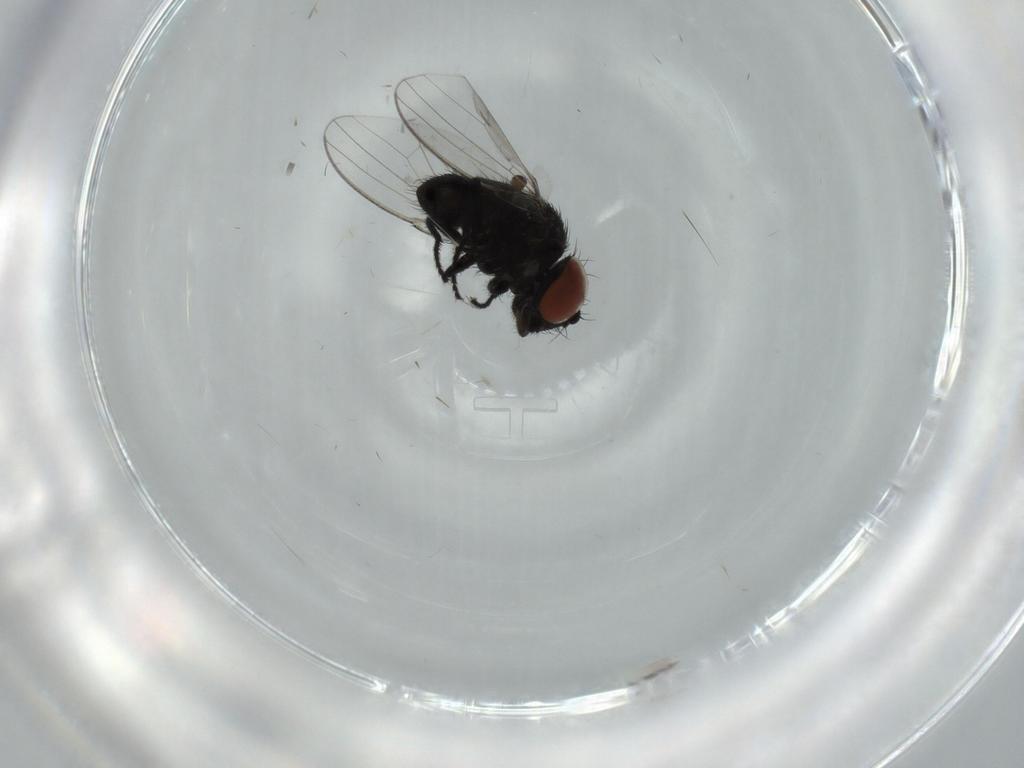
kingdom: Animalia
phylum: Arthropoda
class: Insecta
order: Diptera
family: Milichiidae
